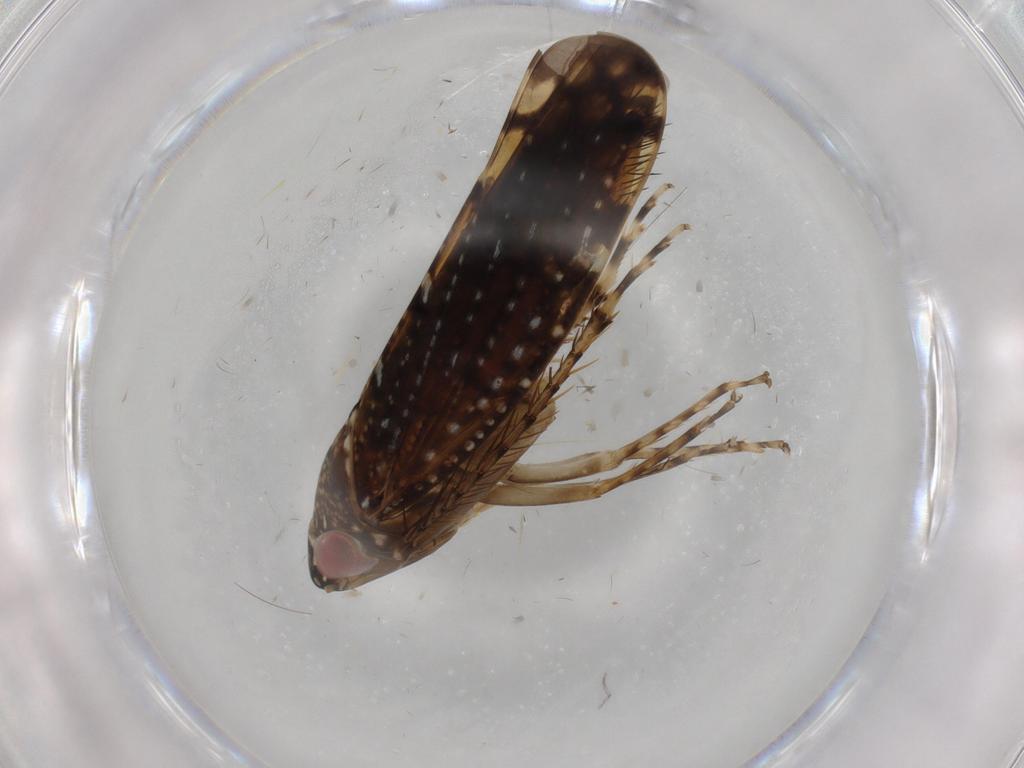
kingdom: Animalia
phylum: Arthropoda
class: Insecta
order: Hemiptera
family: Cicadellidae
